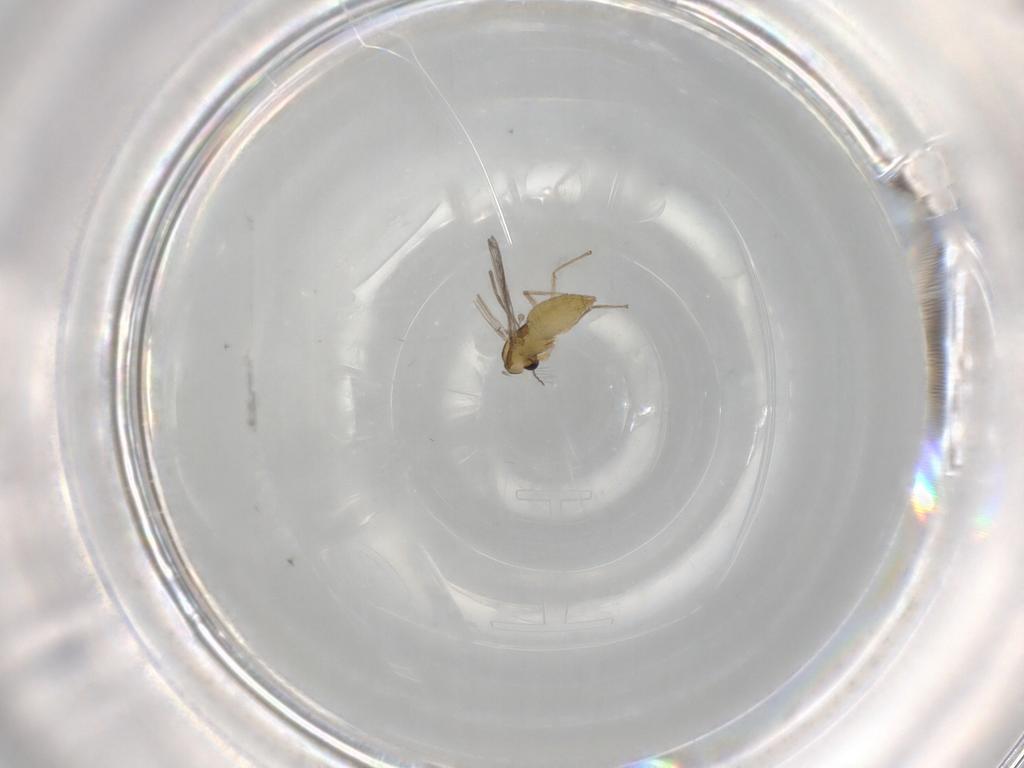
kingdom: Animalia
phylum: Arthropoda
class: Insecta
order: Diptera
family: Chironomidae
